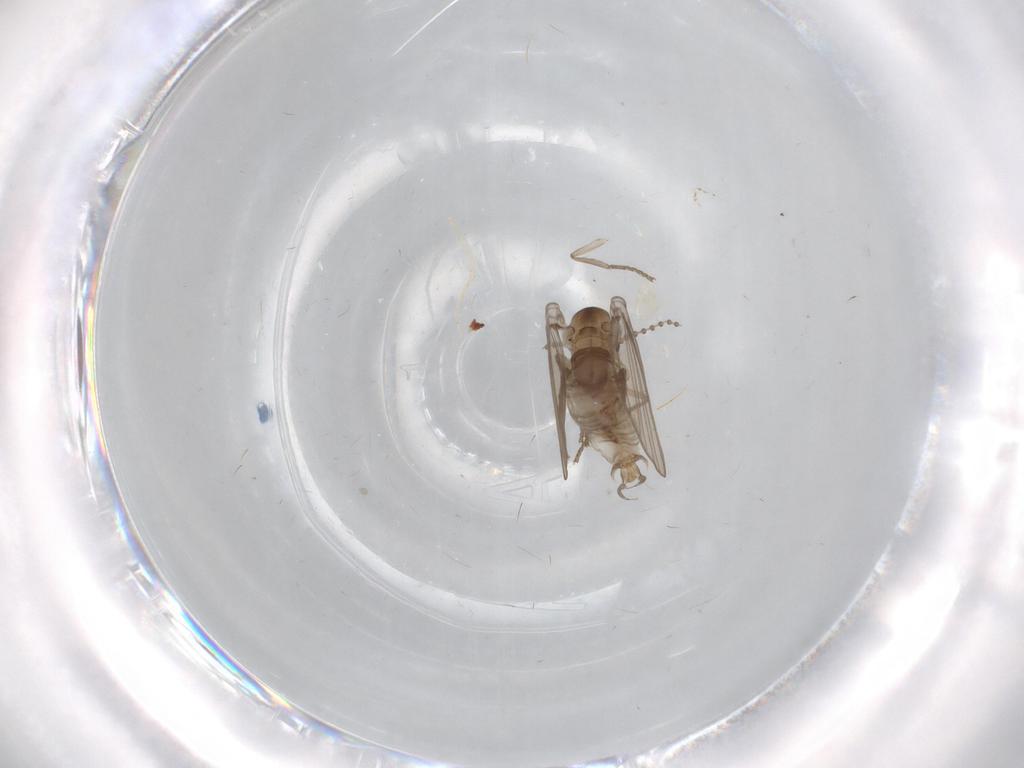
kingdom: Animalia
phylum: Arthropoda
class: Insecta
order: Diptera
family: Psychodidae
